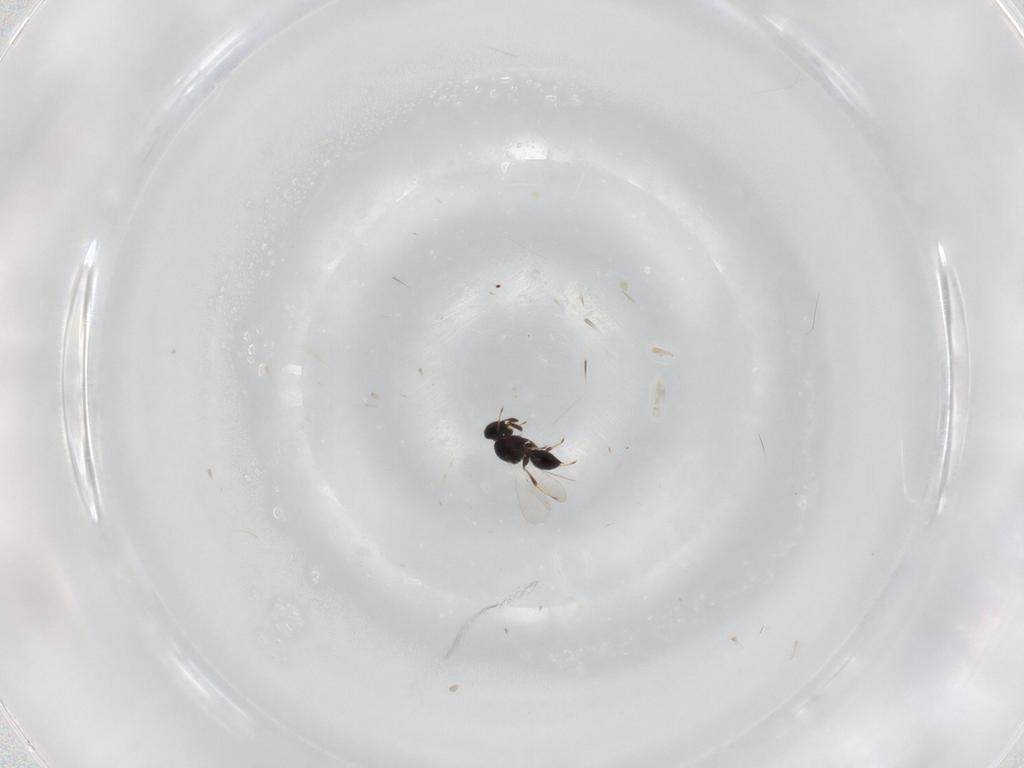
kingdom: Animalia
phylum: Arthropoda
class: Insecta
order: Hymenoptera
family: Platygastridae
